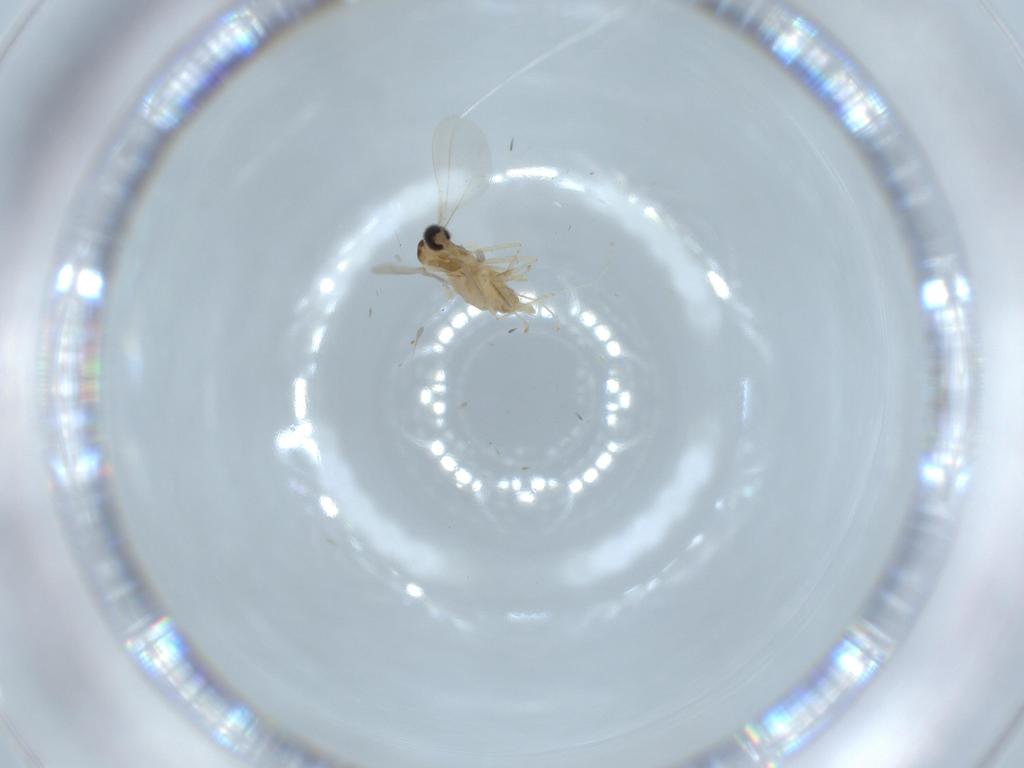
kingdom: Animalia
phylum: Arthropoda
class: Insecta
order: Diptera
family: Cecidomyiidae
